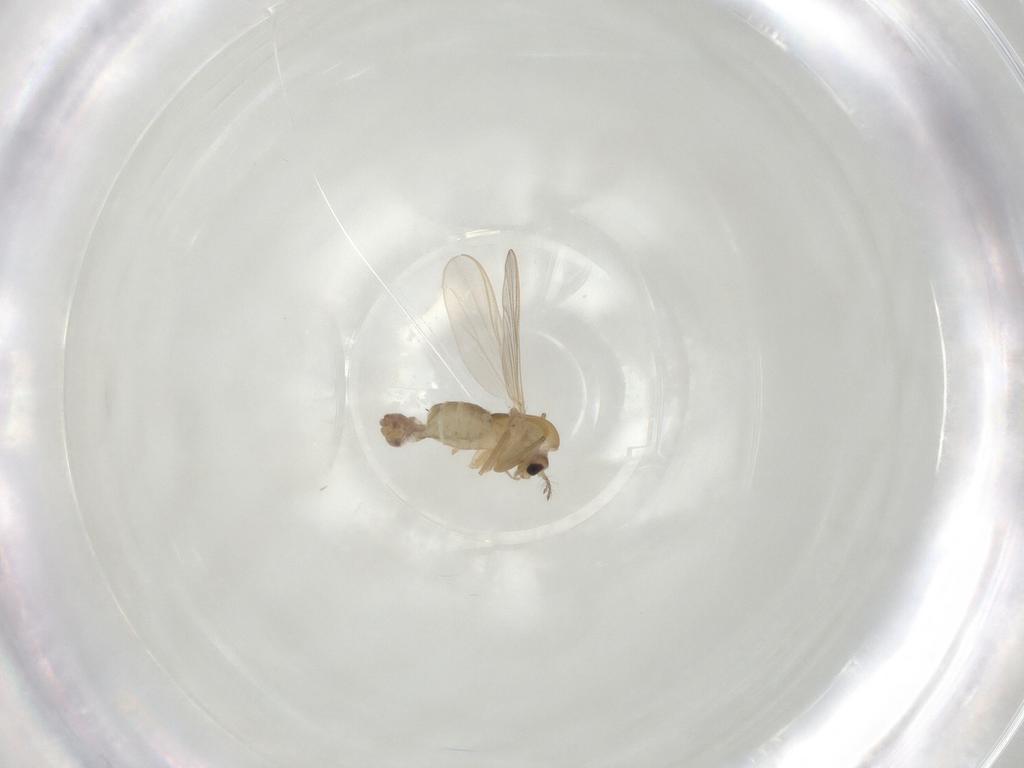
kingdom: Animalia
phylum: Arthropoda
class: Insecta
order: Diptera
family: Chironomidae
